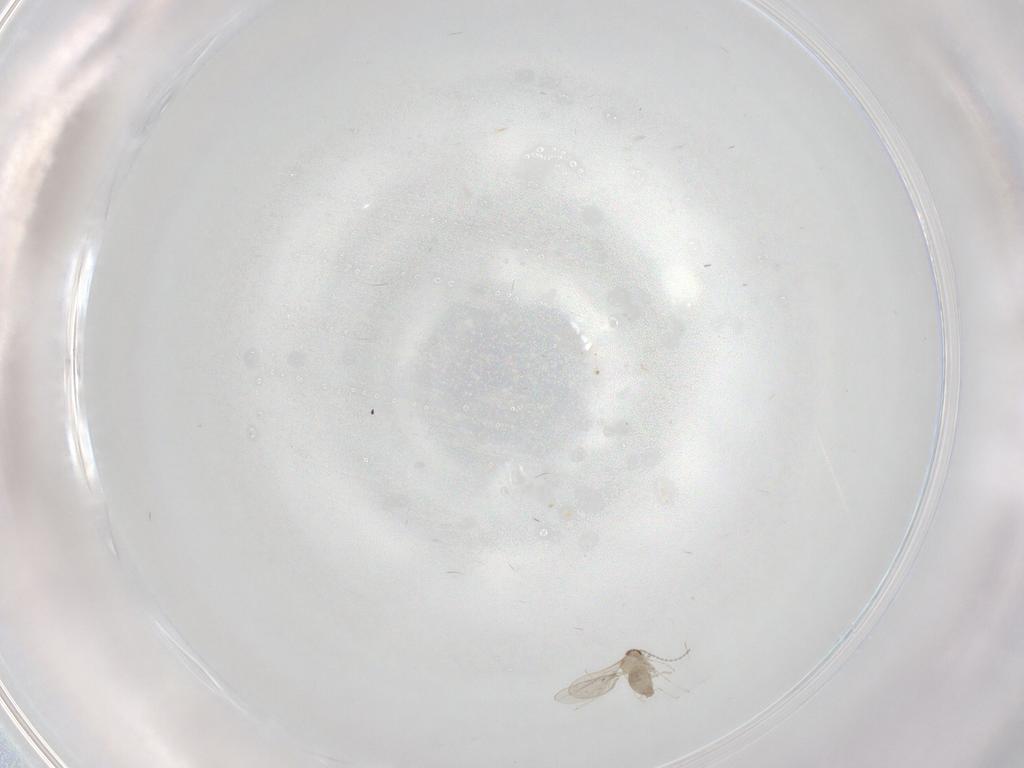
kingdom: Animalia
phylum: Arthropoda
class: Insecta
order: Diptera
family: Cecidomyiidae
